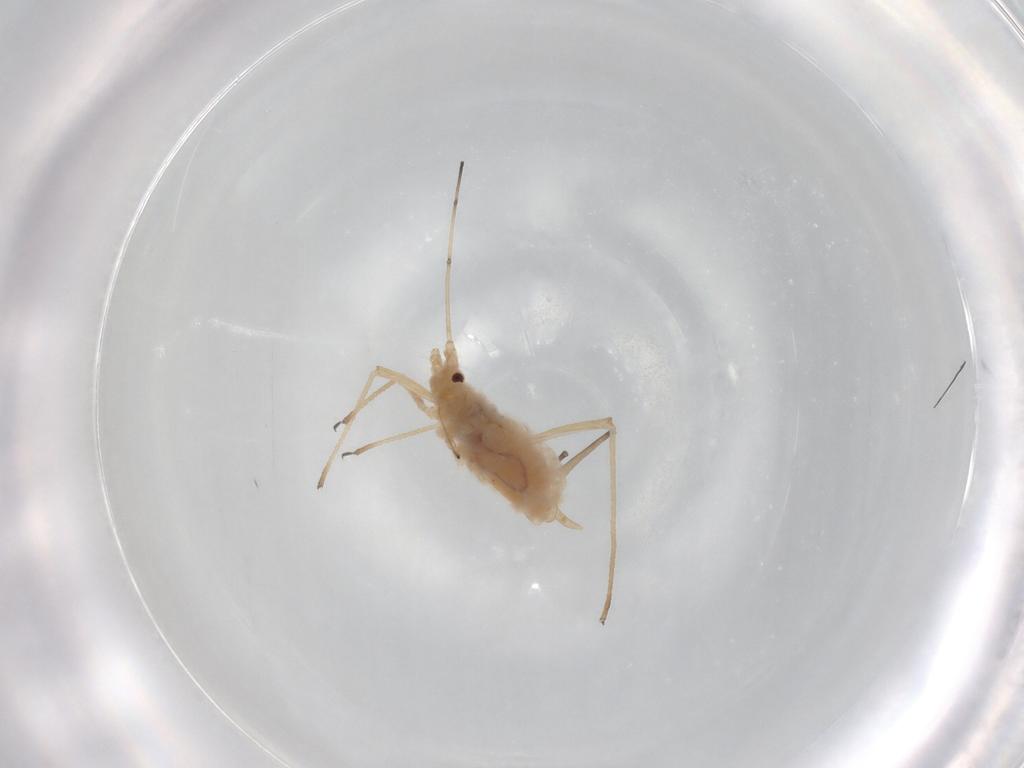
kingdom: Animalia
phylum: Arthropoda
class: Insecta
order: Hemiptera
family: Aphididae
